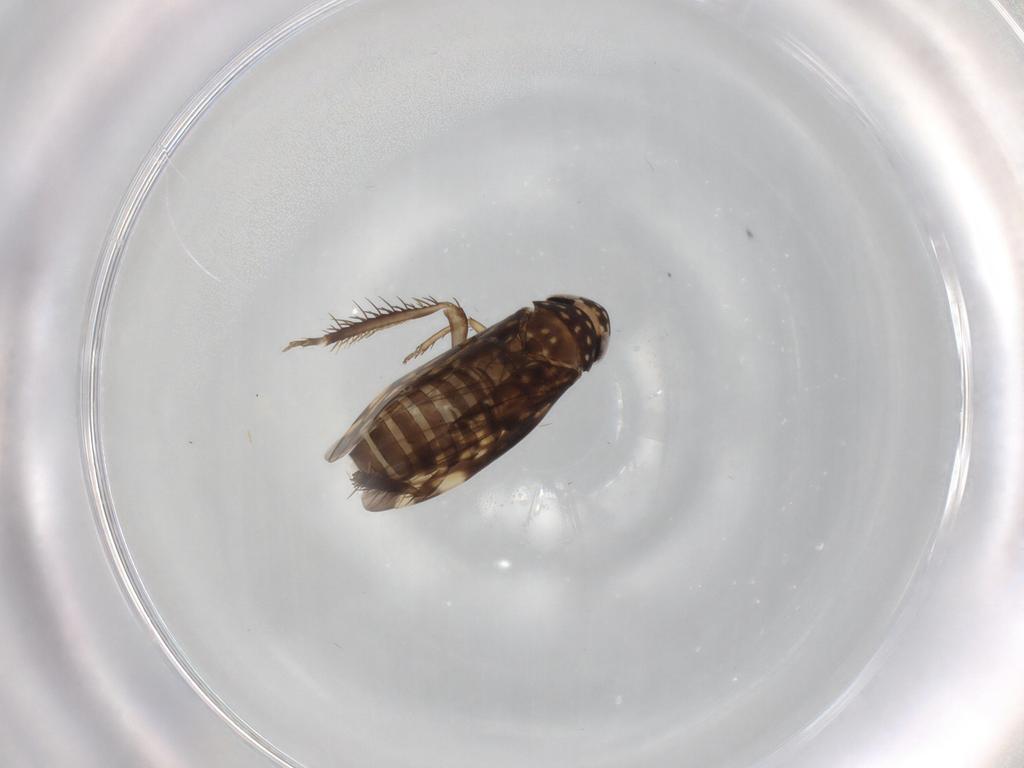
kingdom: Animalia
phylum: Arthropoda
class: Insecta
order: Hemiptera
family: Cicadellidae
